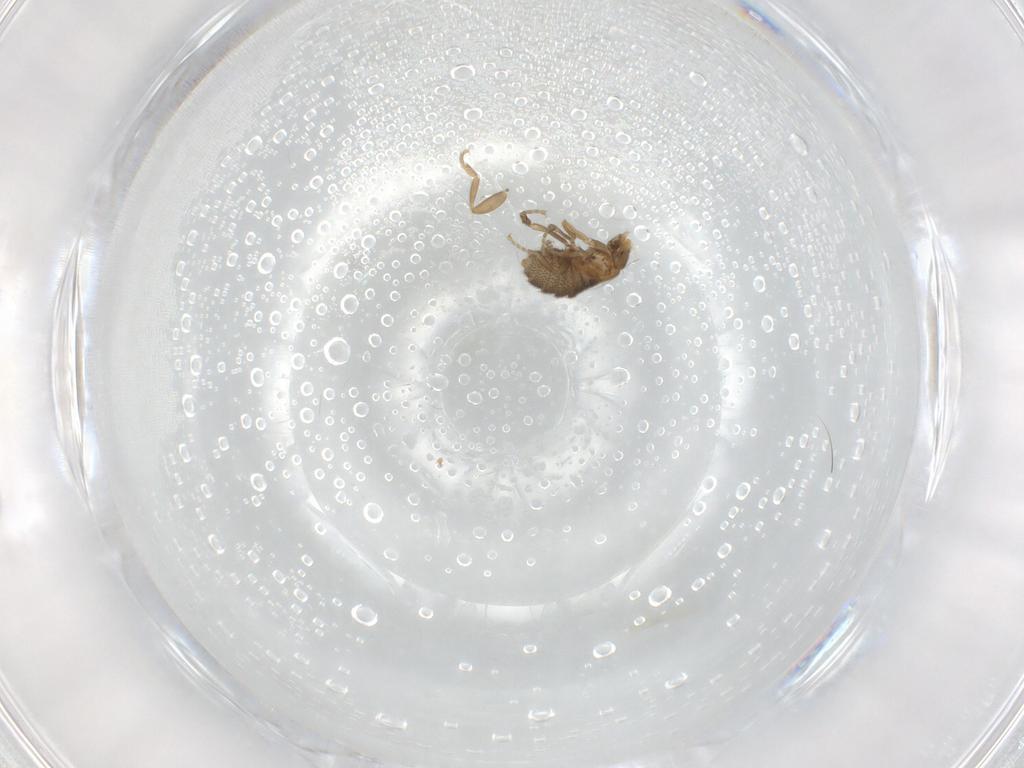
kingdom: Animalia
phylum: Arthropoda
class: Insecta
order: Diptera
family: Phoridae
